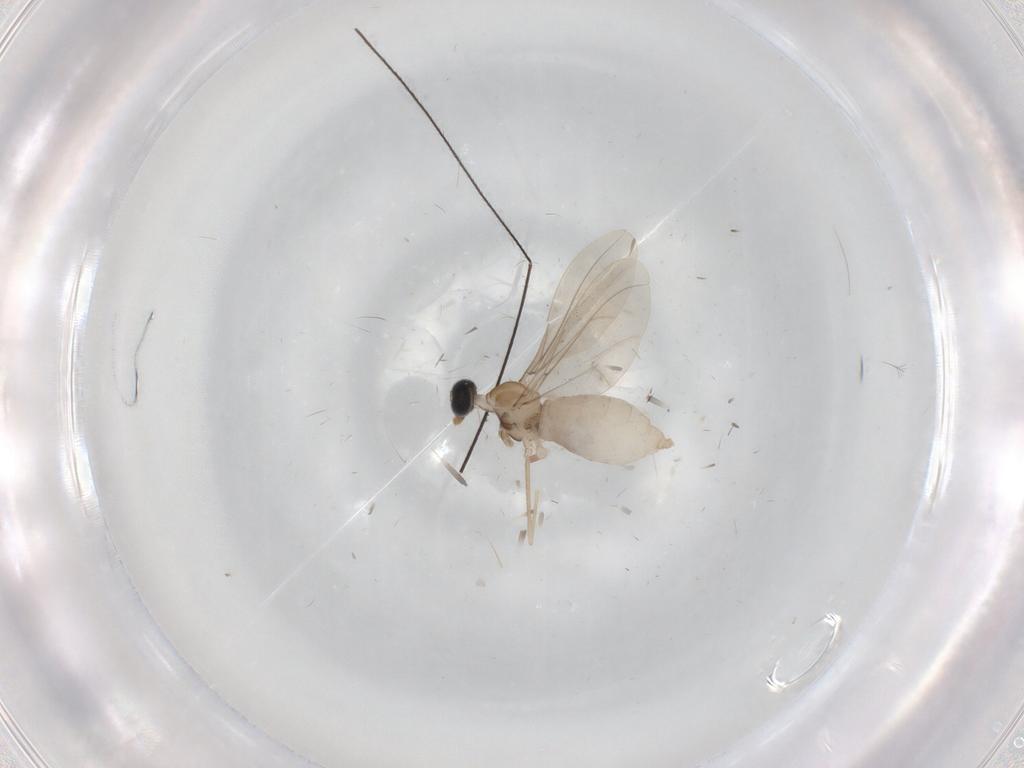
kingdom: Animalia
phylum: Arthropoda
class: Insecta
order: Diptera
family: Cecidomyiidae
